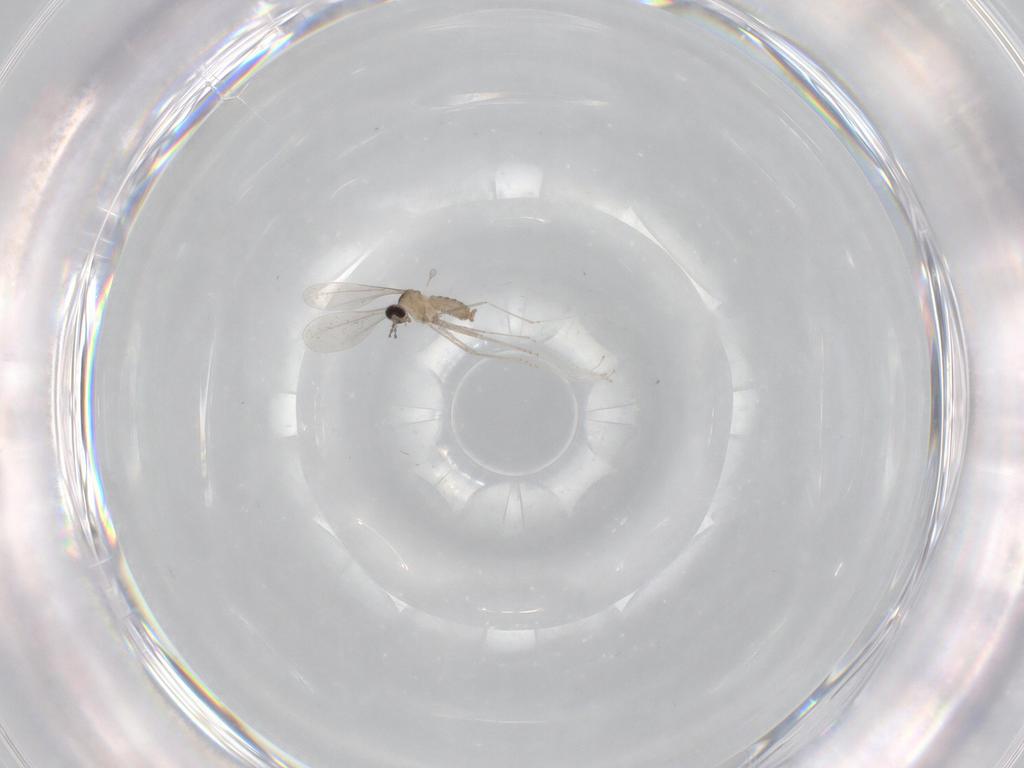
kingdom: Animalia
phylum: Arthropoda
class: Insecta
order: Diptera
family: Cecidomyiidae
